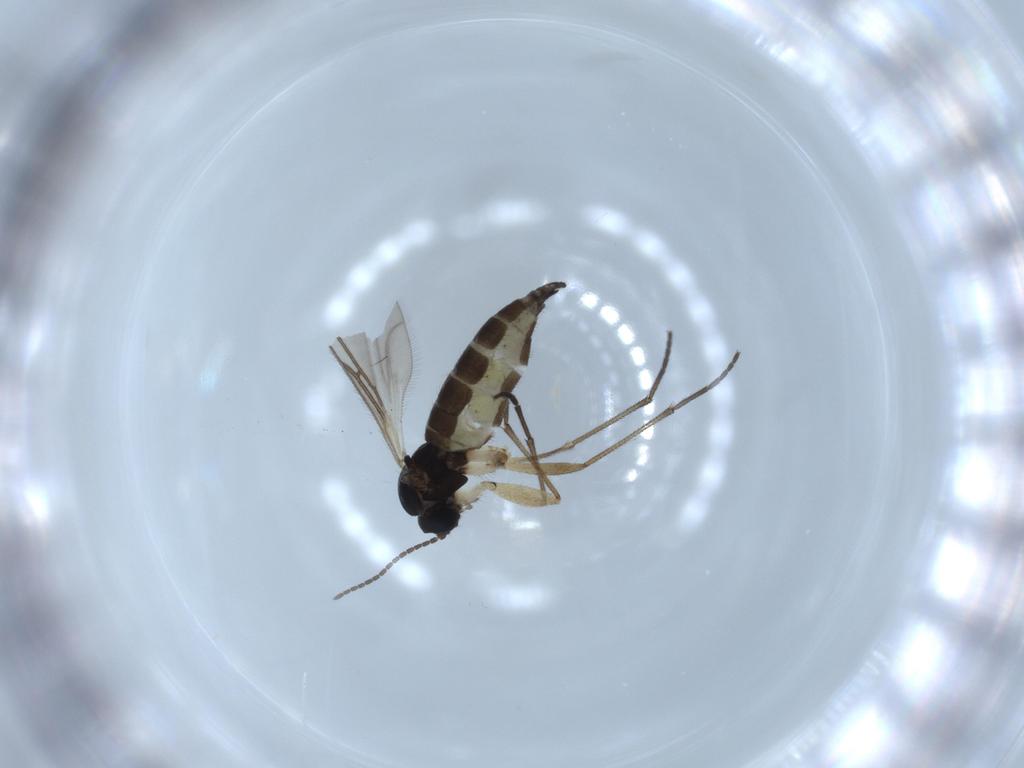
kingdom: Animalia
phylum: Arthropoda
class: Insecta
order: Diptera
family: Sciaridae
